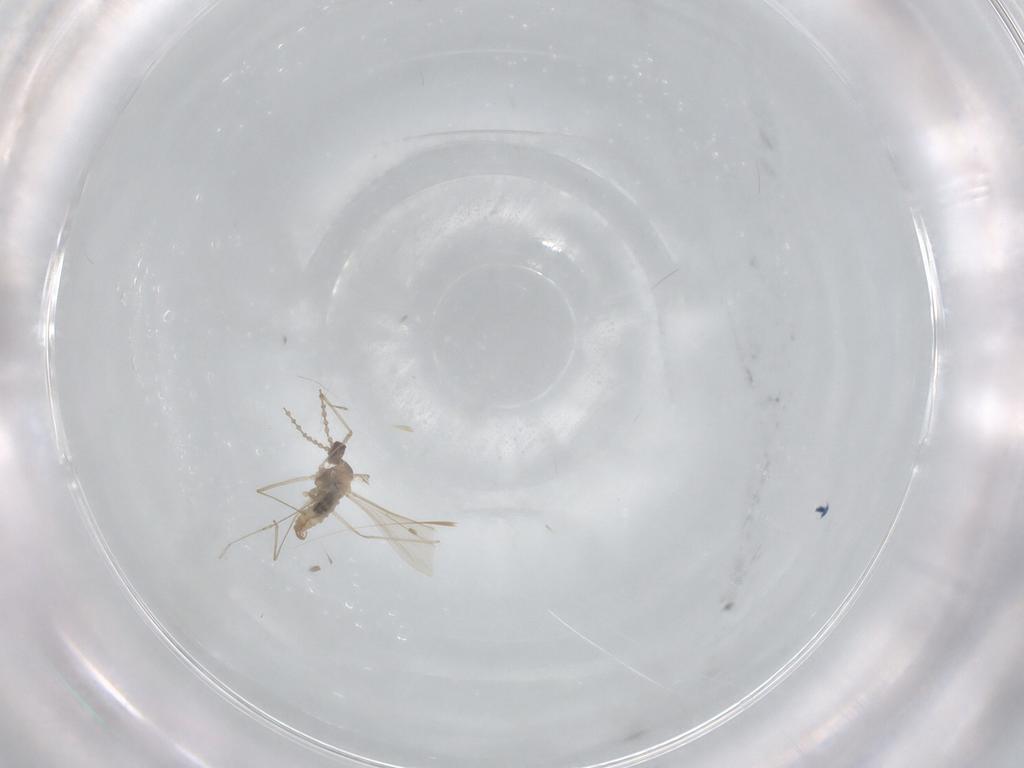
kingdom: Animalia
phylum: Arthropoda
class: Insecta
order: Diptera
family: Cecidomyiidae
